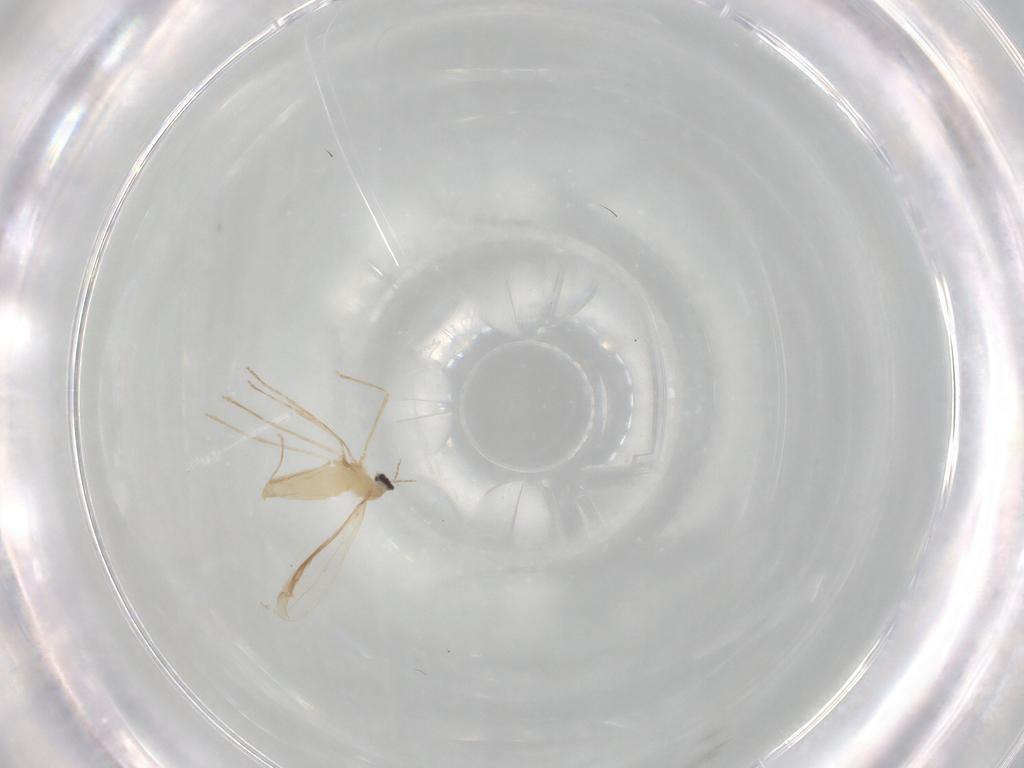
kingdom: Animalia
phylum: Arthropoda
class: Insecta
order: Diptera
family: Cecidomyiidae
